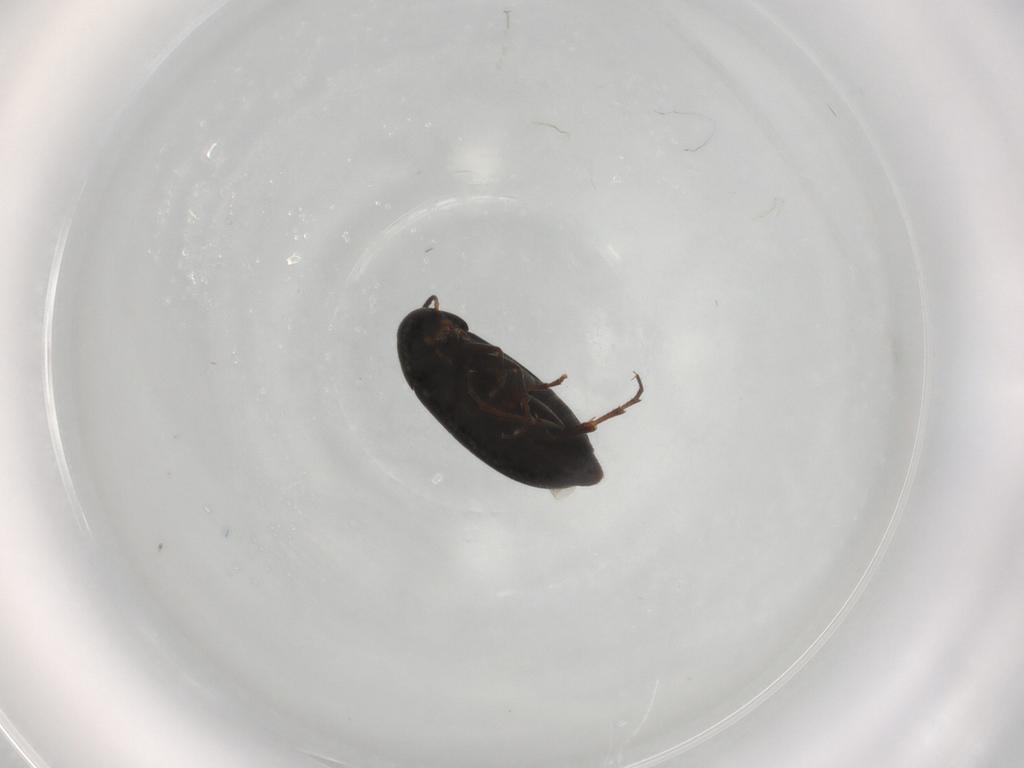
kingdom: Animalia
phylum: Arthropoda
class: Insecta
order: Coleoptera
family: Scraptiidae
